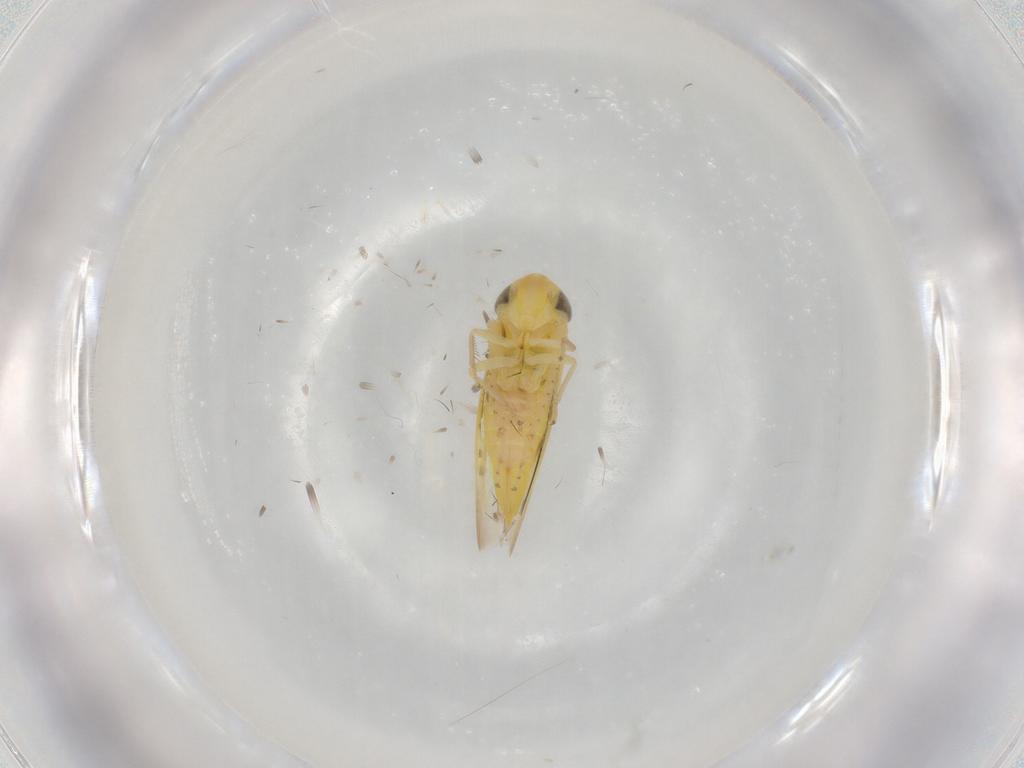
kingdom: Animalia
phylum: Arthropoda
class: Insecta
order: Hemiptera
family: Cicadellidae
